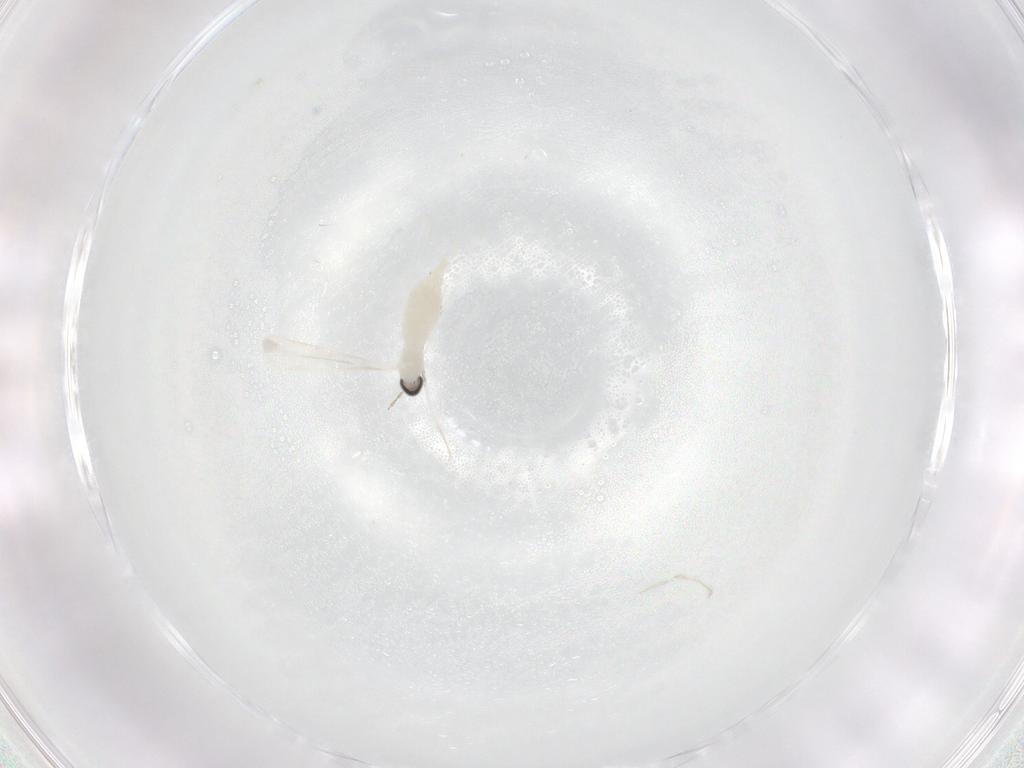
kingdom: Animalia
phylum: Arthropoda
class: Insecta
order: Diptera
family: Cecidomyiidae
